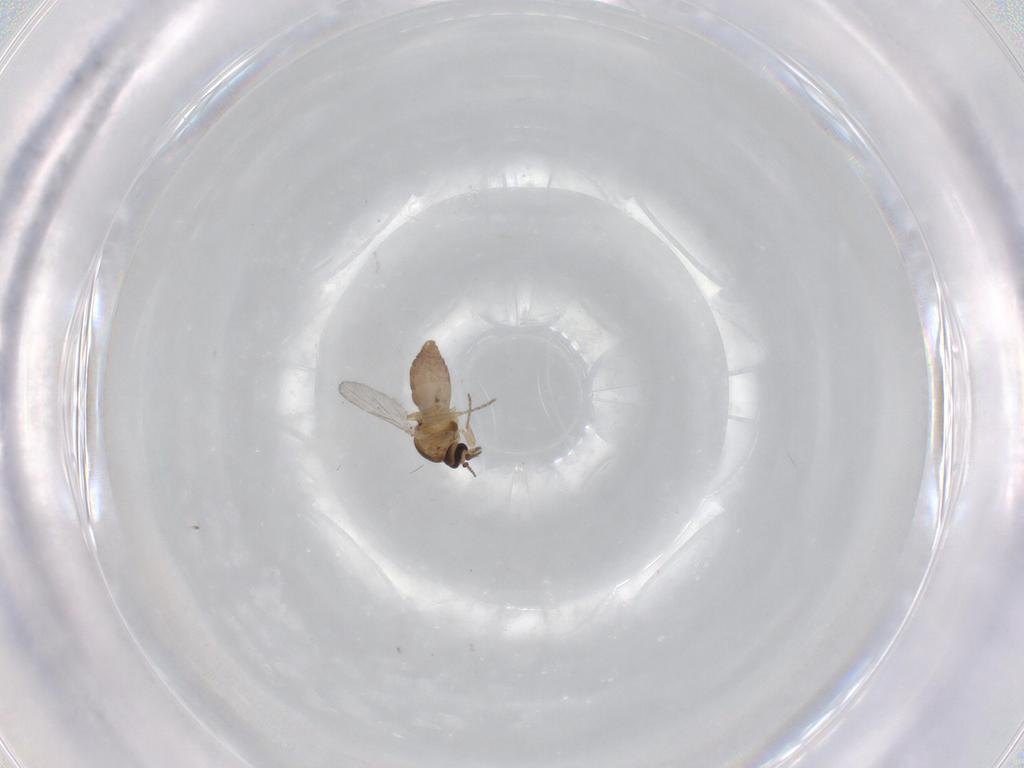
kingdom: Animalia
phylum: Arthropoda
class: Insecta
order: Diptera
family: Ceratopogonidae
